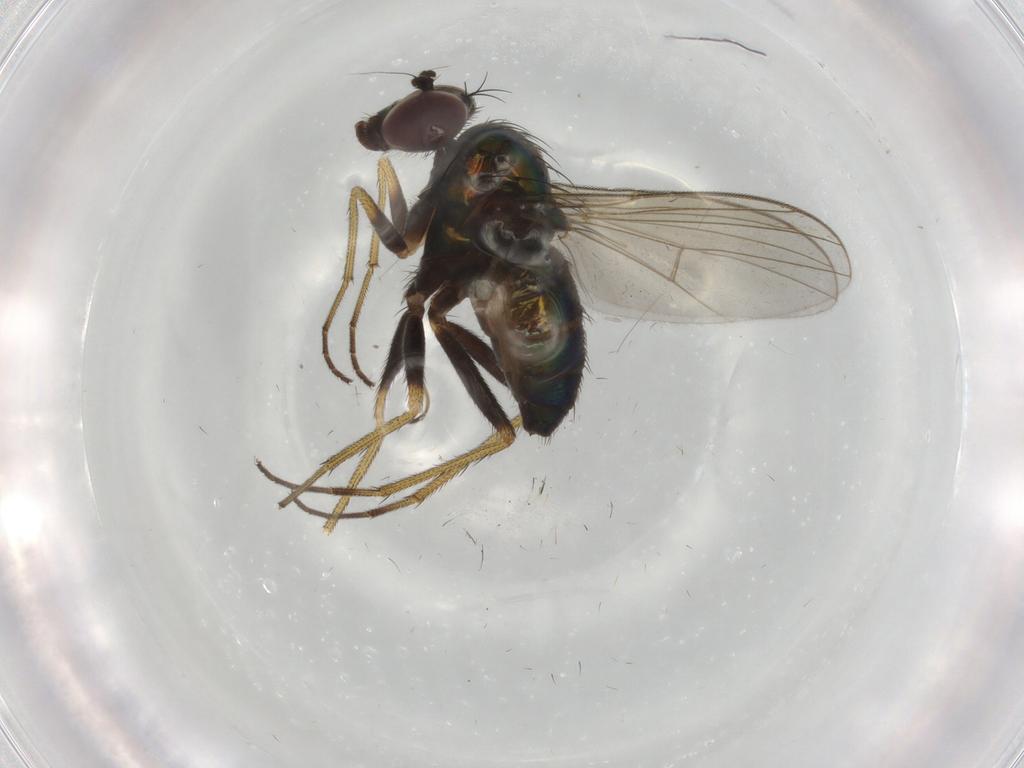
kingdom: Animalia
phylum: Arthropoda
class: Insecta
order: Diptera
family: Dolichopodidae
